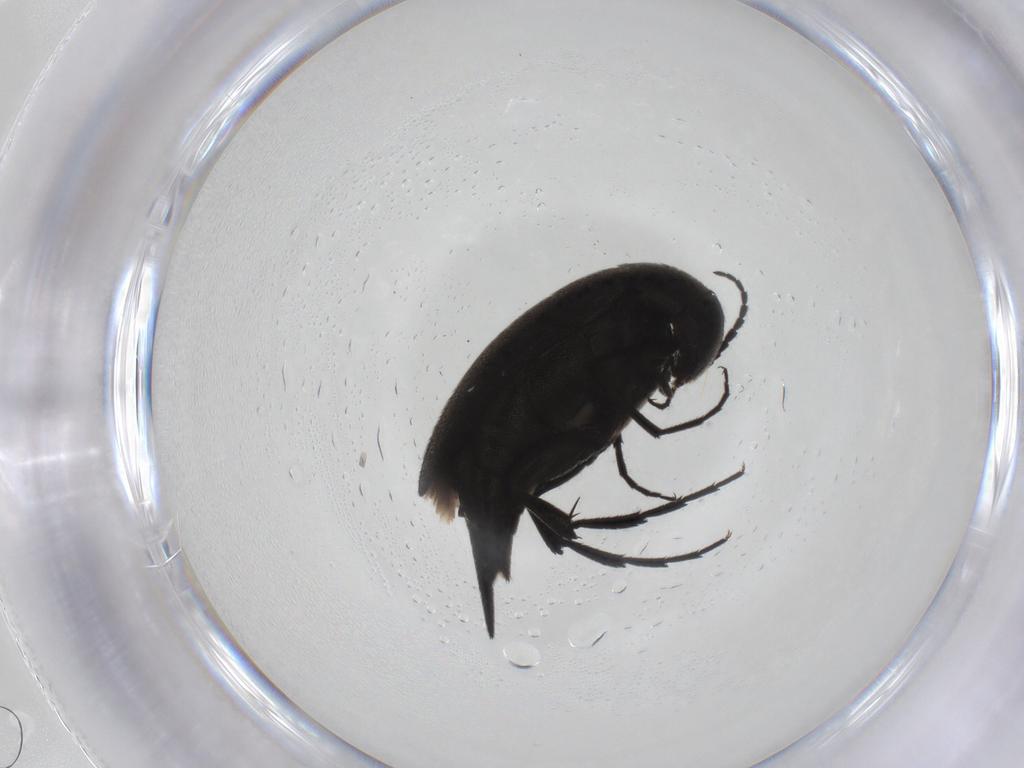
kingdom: Animalia
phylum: Arthropoda
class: Insecta
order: Coleoptera
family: Mordellidae
